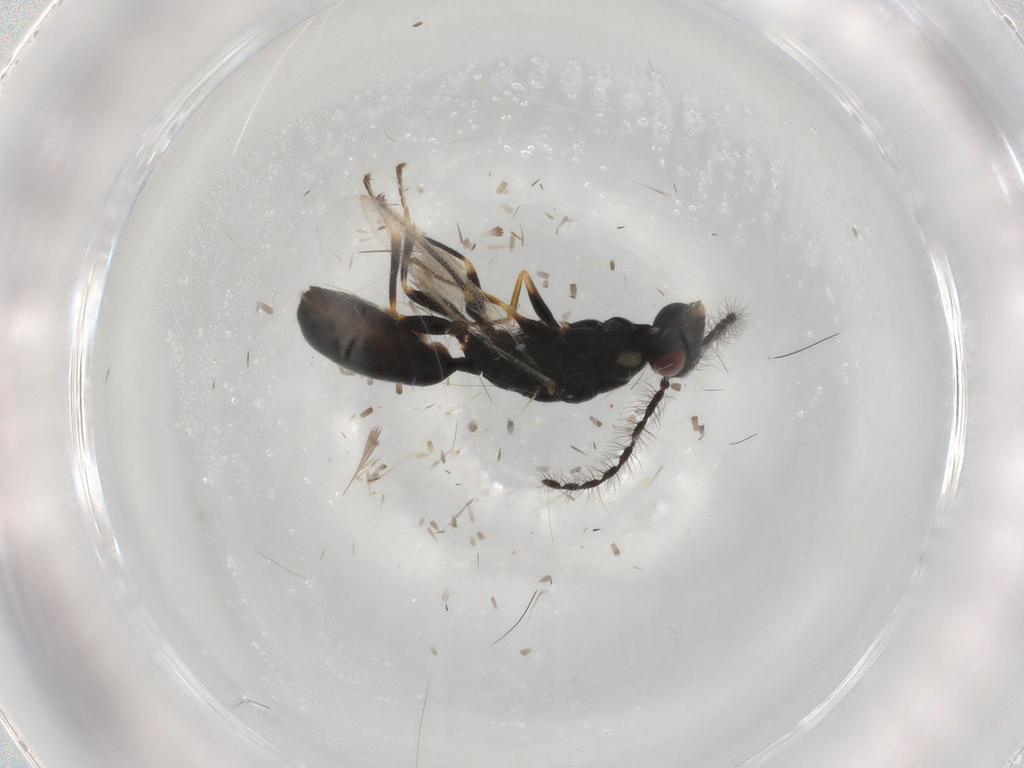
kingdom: Animalia
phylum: Arthropoda
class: Insecta
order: Hymenoptera
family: Eurytomidae
